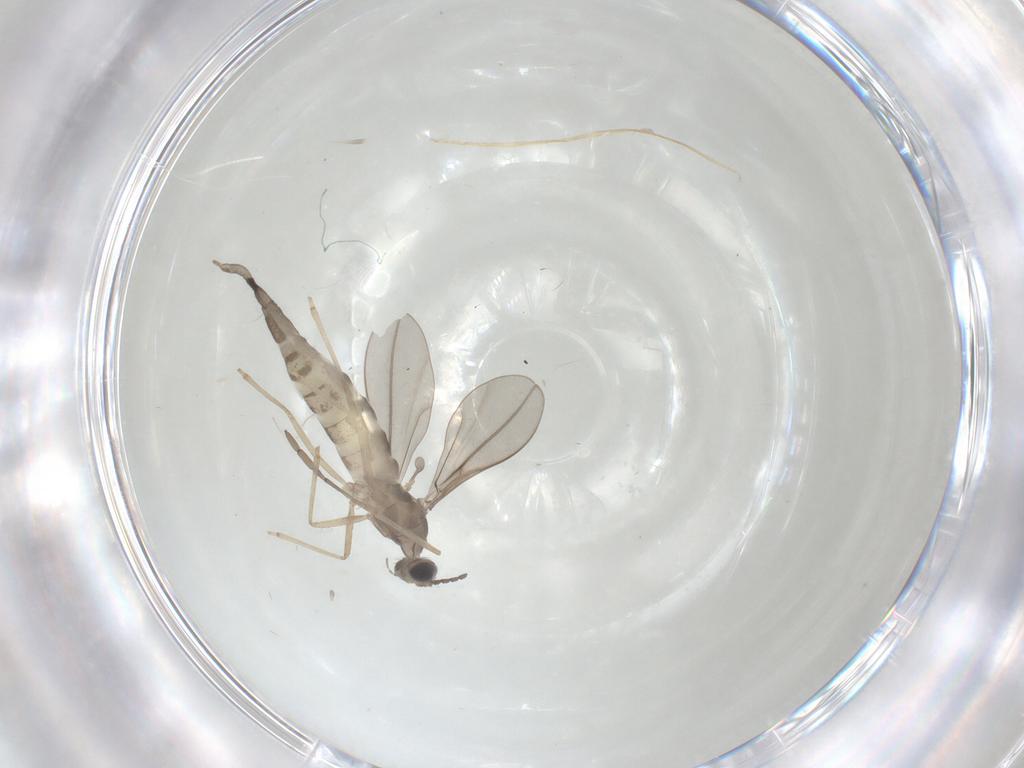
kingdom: Animalia
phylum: Arthropoda
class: Insecta
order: Diptera
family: Cecidomyiidae
